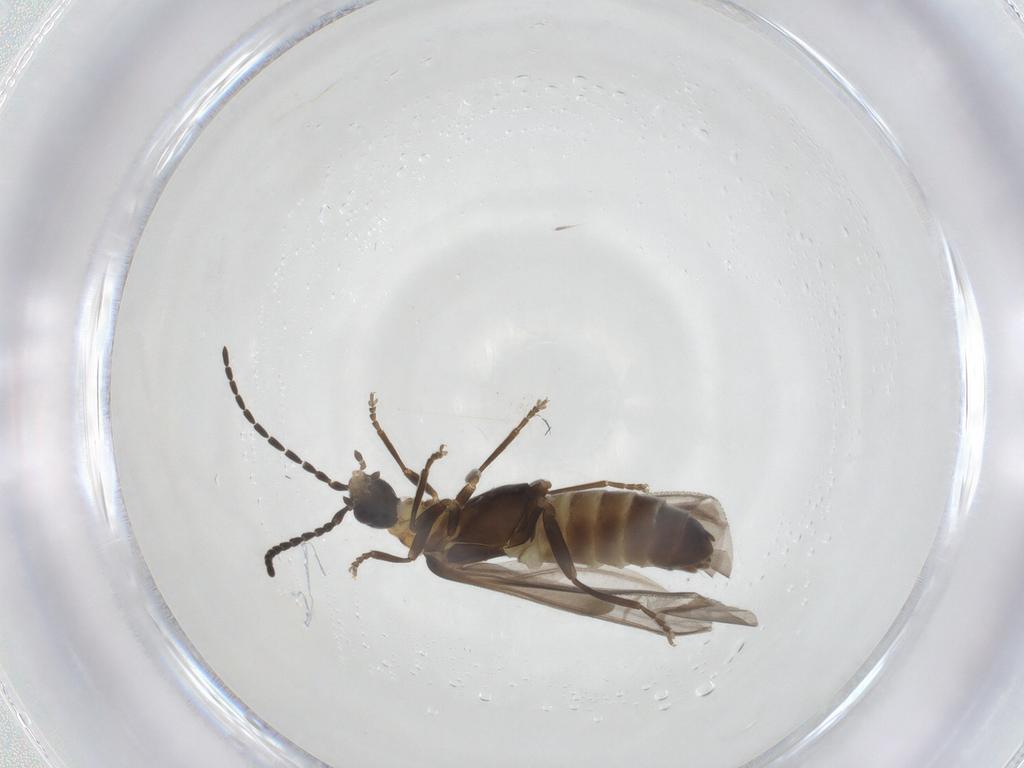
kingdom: Animalia
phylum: Arthropoda
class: Insecta
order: Coleoptera
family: Cantharidae
